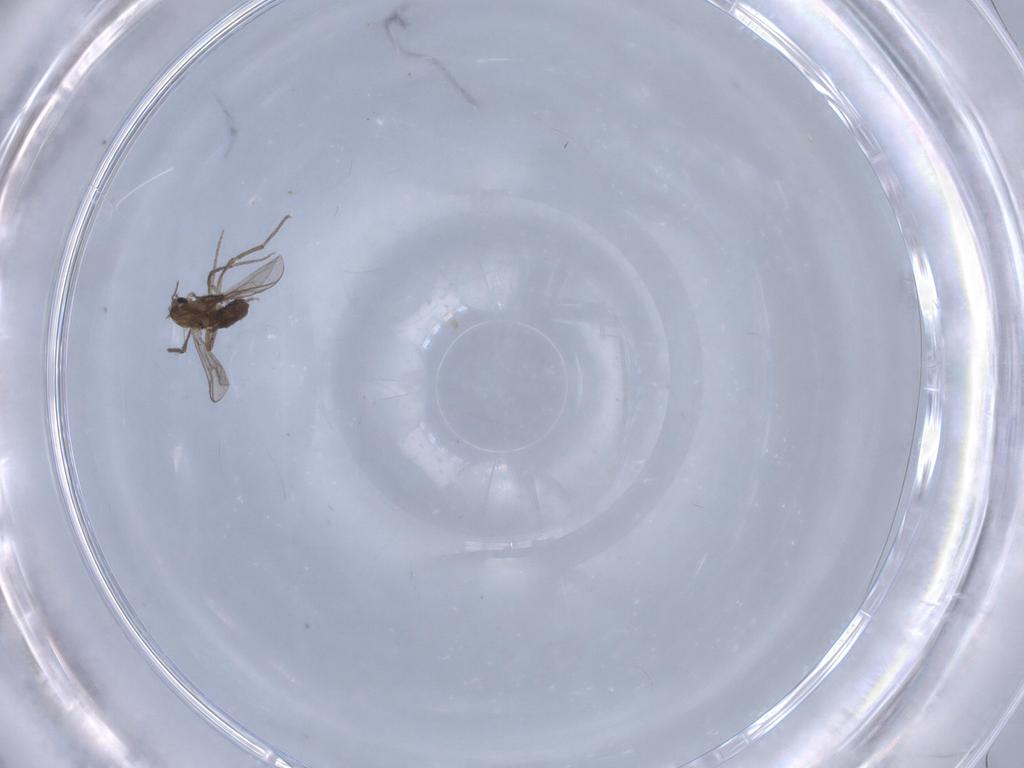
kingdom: Animalia
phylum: Arthropoda
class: Insecta
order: Diptera
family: Chironomidae
